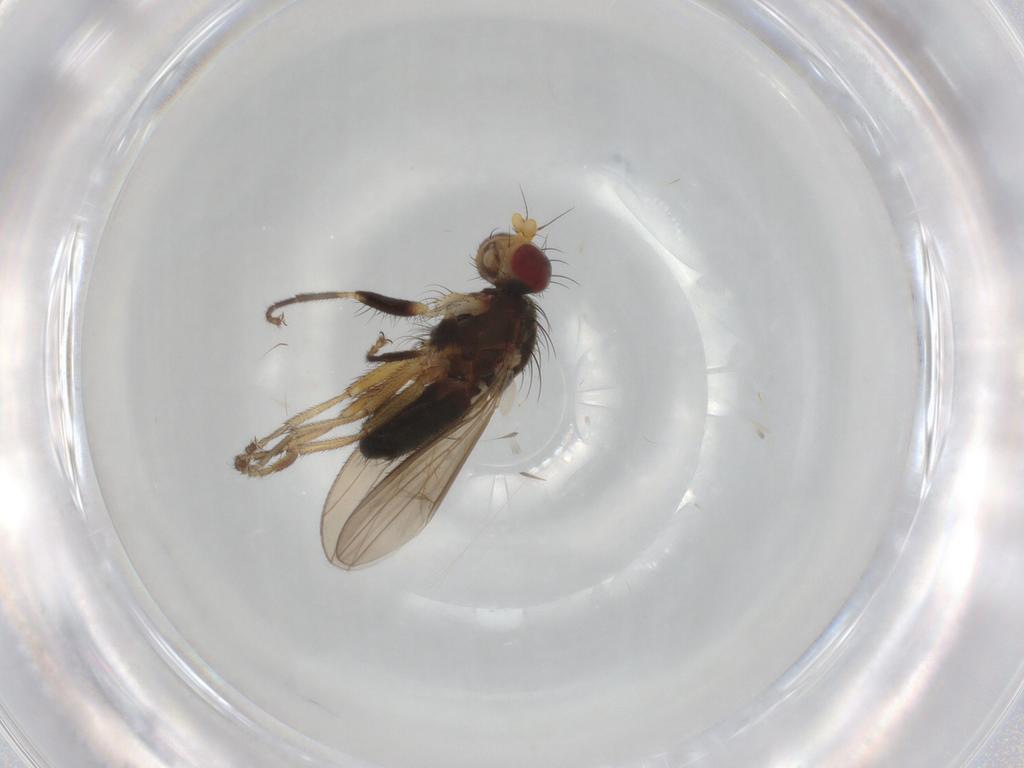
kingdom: Animalia
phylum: Arthropoda
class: Insecta
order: Diptera
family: Heleomyzidae
